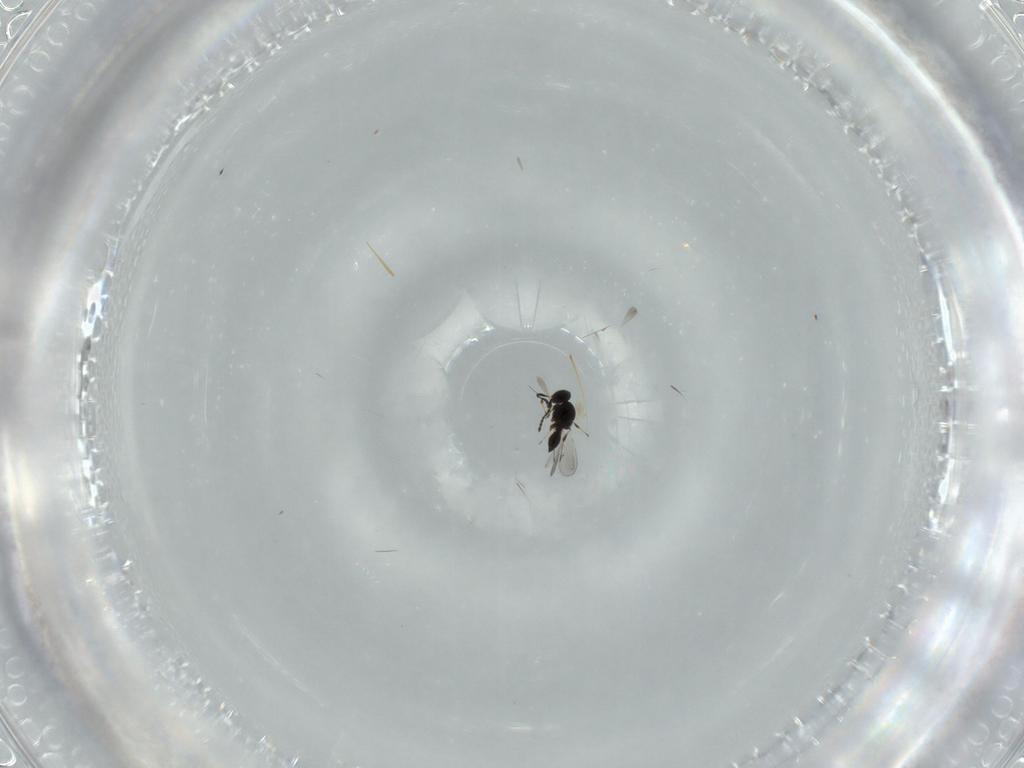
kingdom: Animalia
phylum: Arthropoda
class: Insecta
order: Hymenoptera
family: Platygastridae
